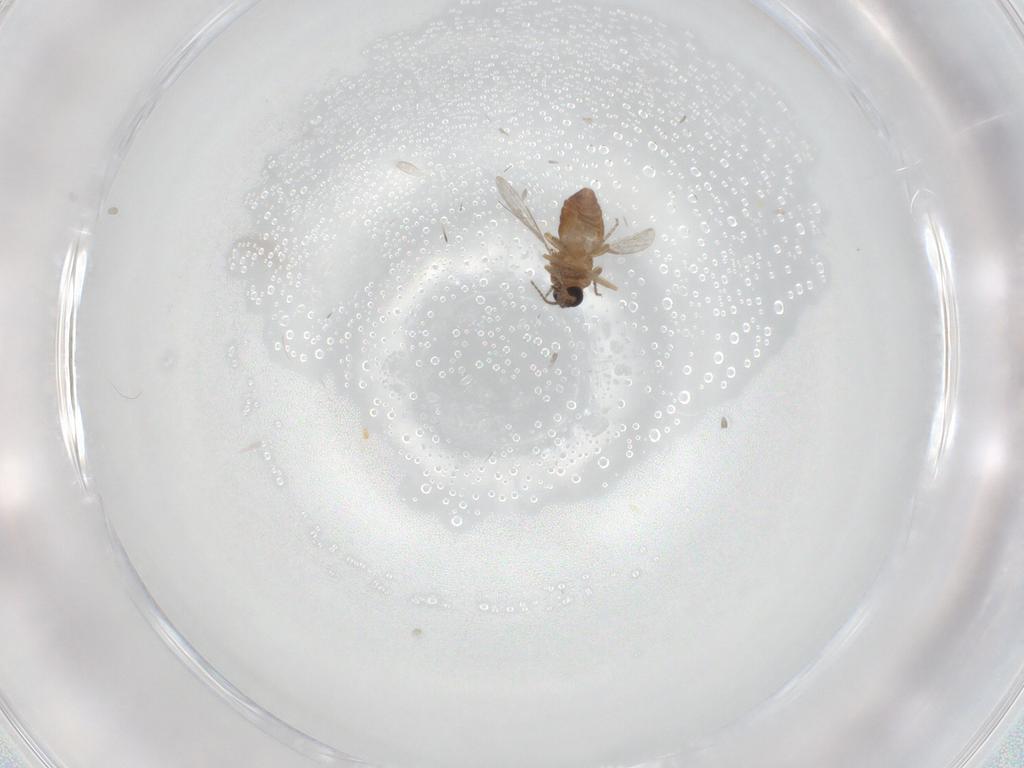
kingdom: Animalia
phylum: Arthropoda
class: Insecta
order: Diptera
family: Ceratopogonidae
